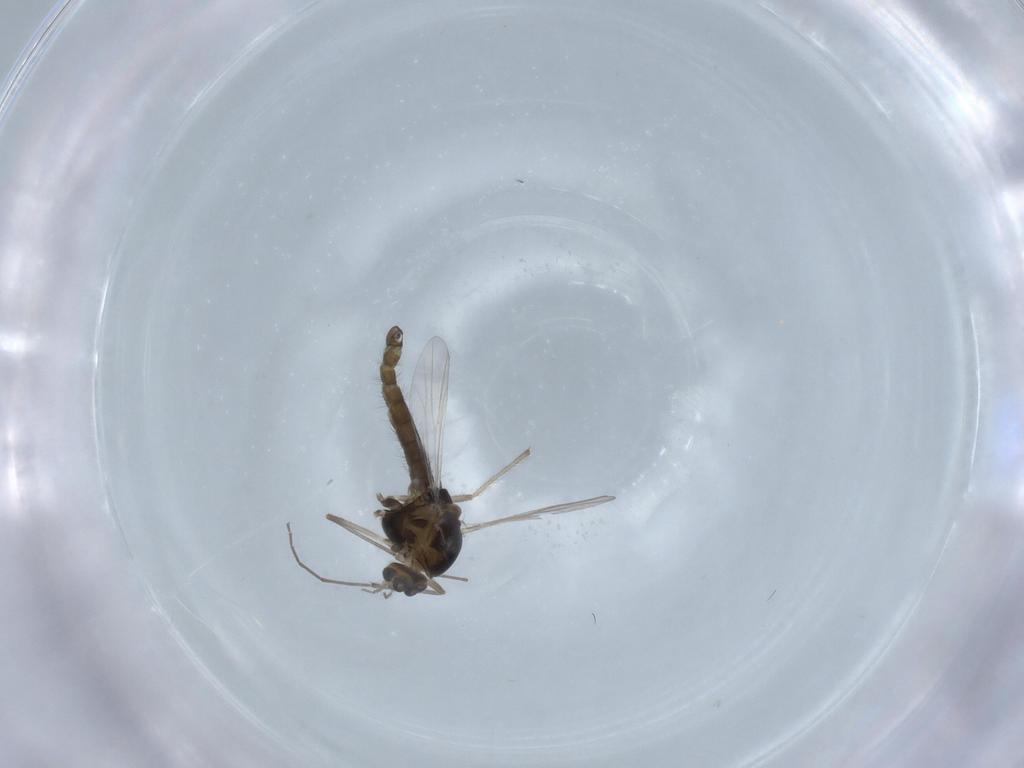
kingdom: Animalia
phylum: Arthropoda
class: Insecta
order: Diptera
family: Chironomidae
